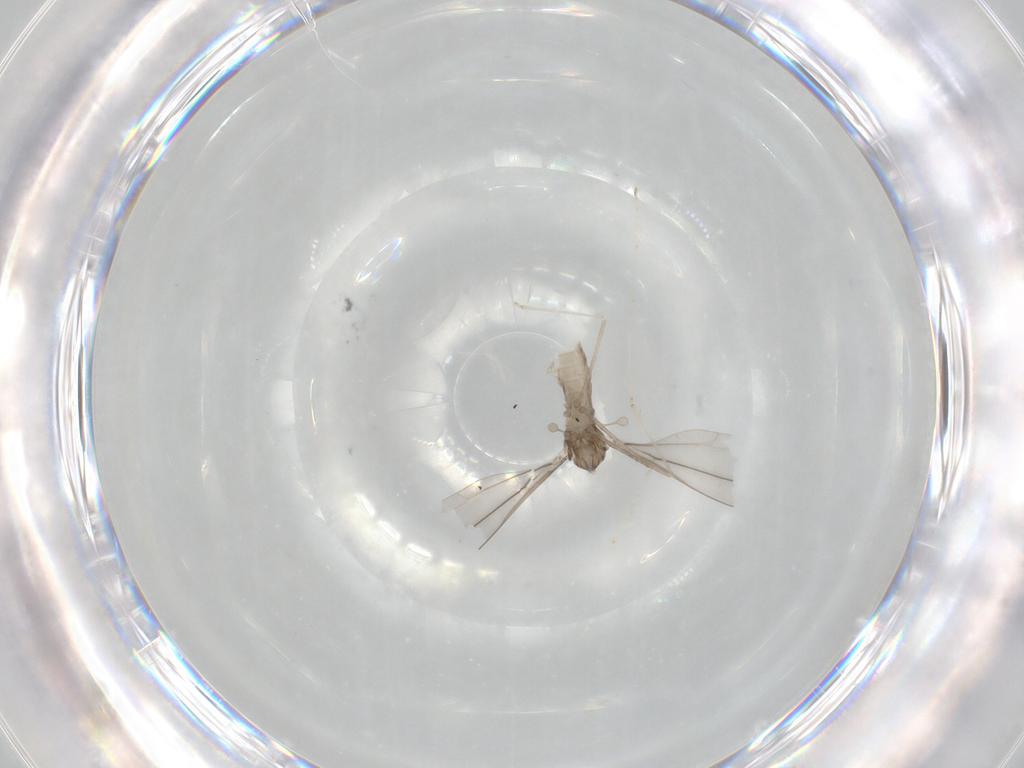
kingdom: Animalia
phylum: Arthropoda
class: Insecta
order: Diptera
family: Cecidomyiidae
